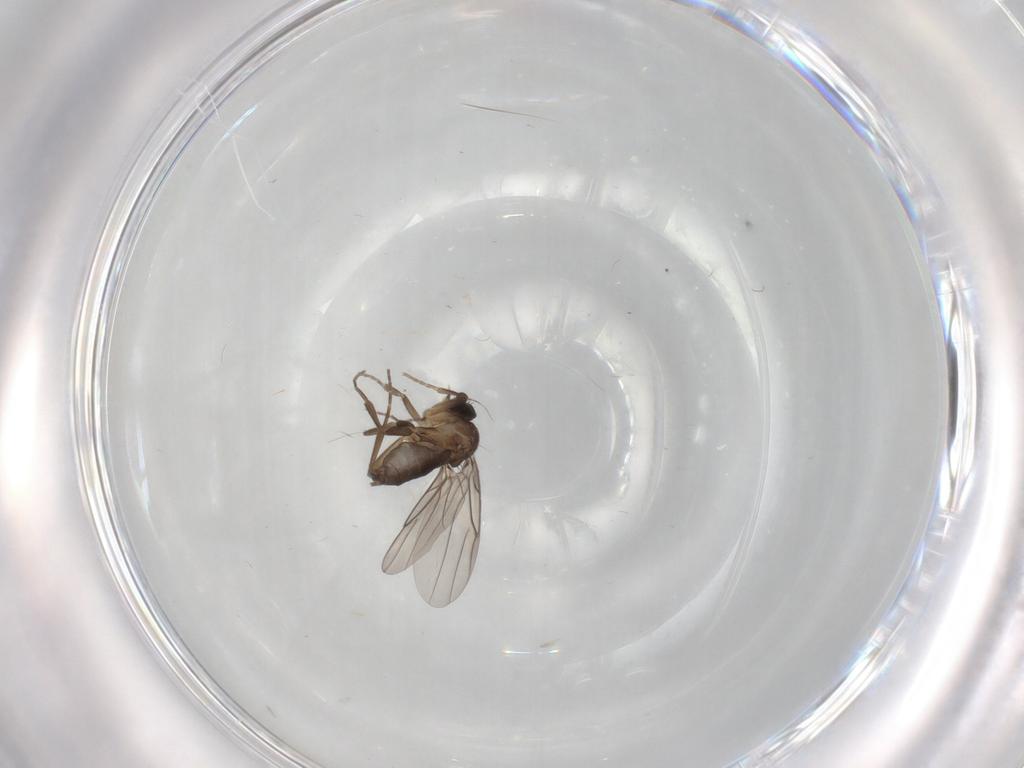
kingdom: Animalia
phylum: Arthropoda
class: Insecta
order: Diptera
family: Phoridae
